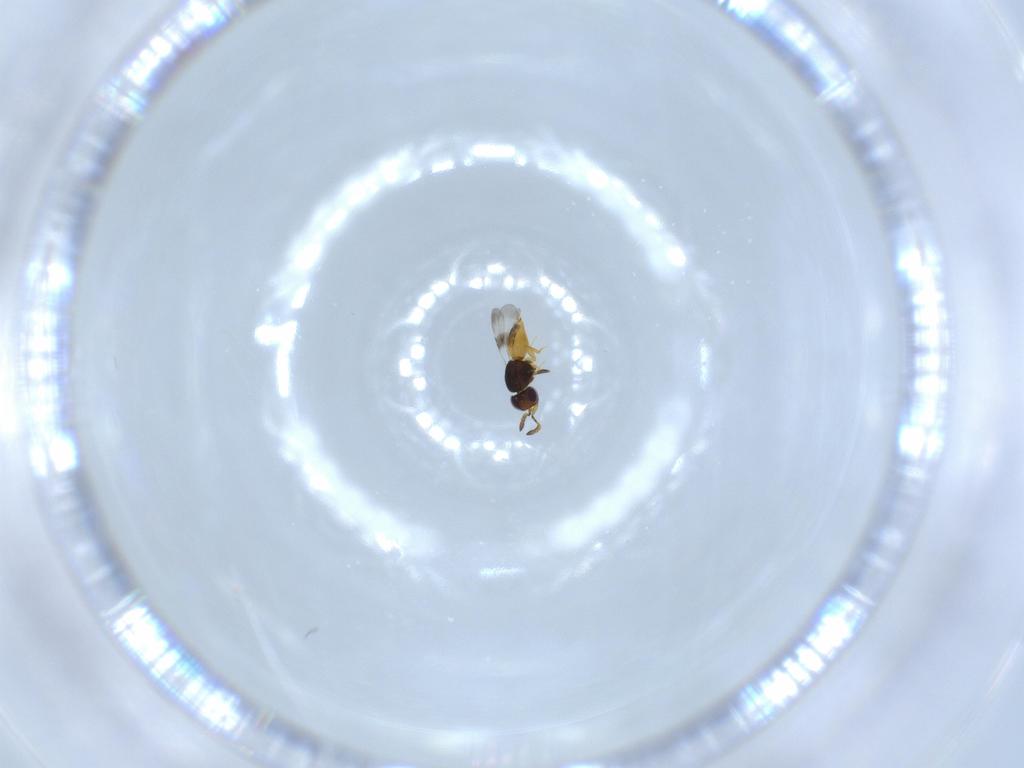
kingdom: Animalia
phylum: Arthropoda
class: Insecta
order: Hymenoptera
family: Formicidae
